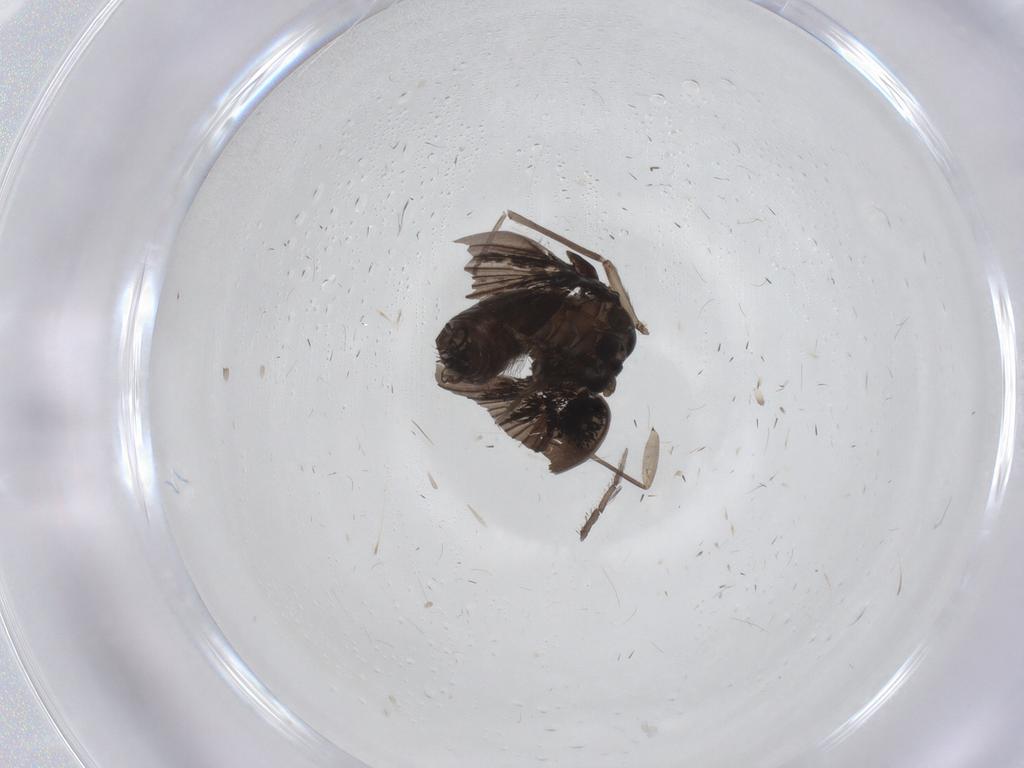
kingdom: Animalia
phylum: Arthropoda
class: Insecta
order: Diptera
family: Psychodidae
